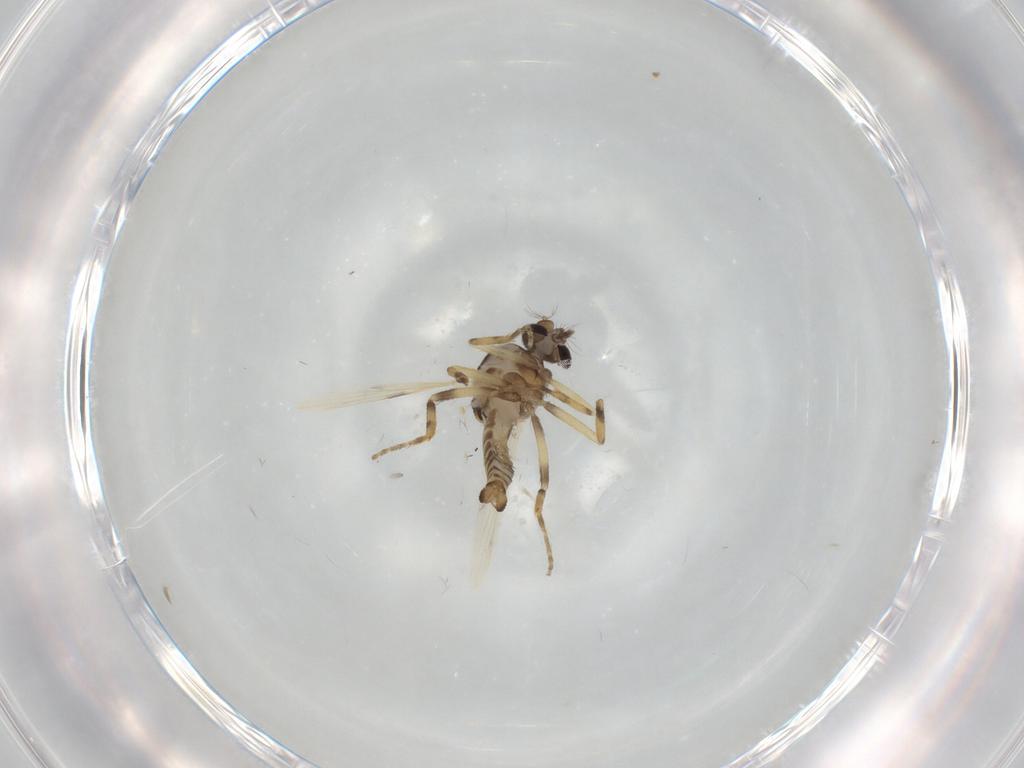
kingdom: Animalia
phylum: Arthropoda
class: Insecta
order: Diptera
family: Ceratopogonidae
